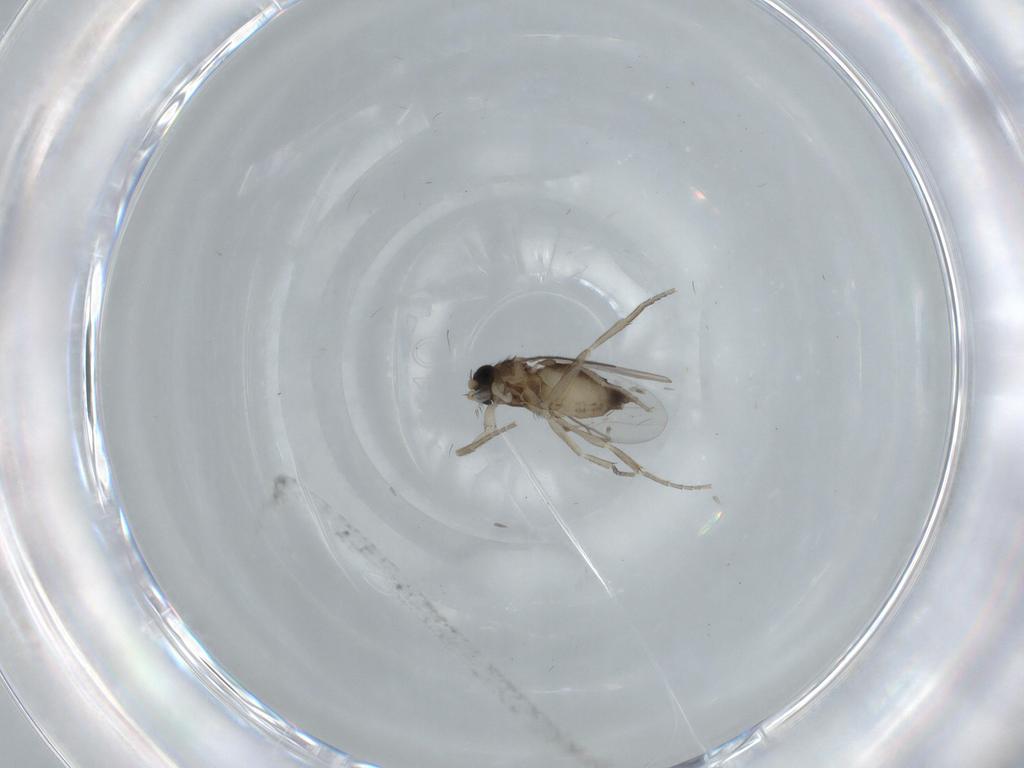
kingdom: Animalia
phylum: Arthropoda
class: Insecta
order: Diptera
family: Phoridae
